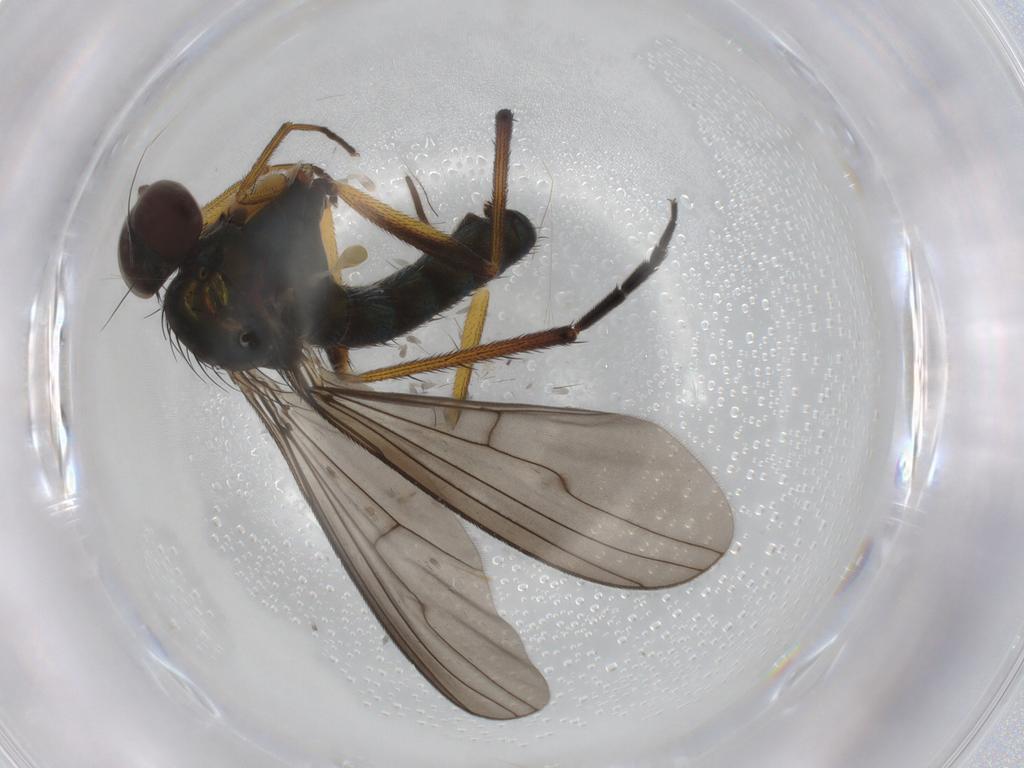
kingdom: Animalia
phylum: Arthropoda
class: Insecta
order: Diptera
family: Dolichopodidae
